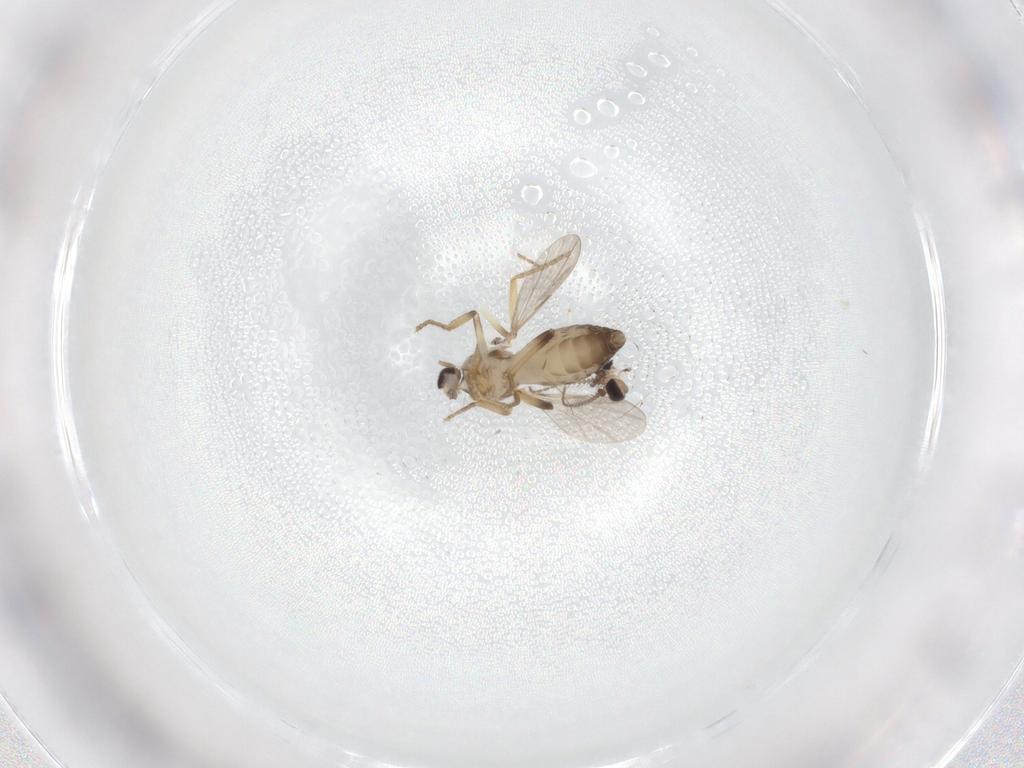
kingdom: Animalia
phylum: Arthropoda
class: Insecta
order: Diptera
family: Ceratopogonidae
